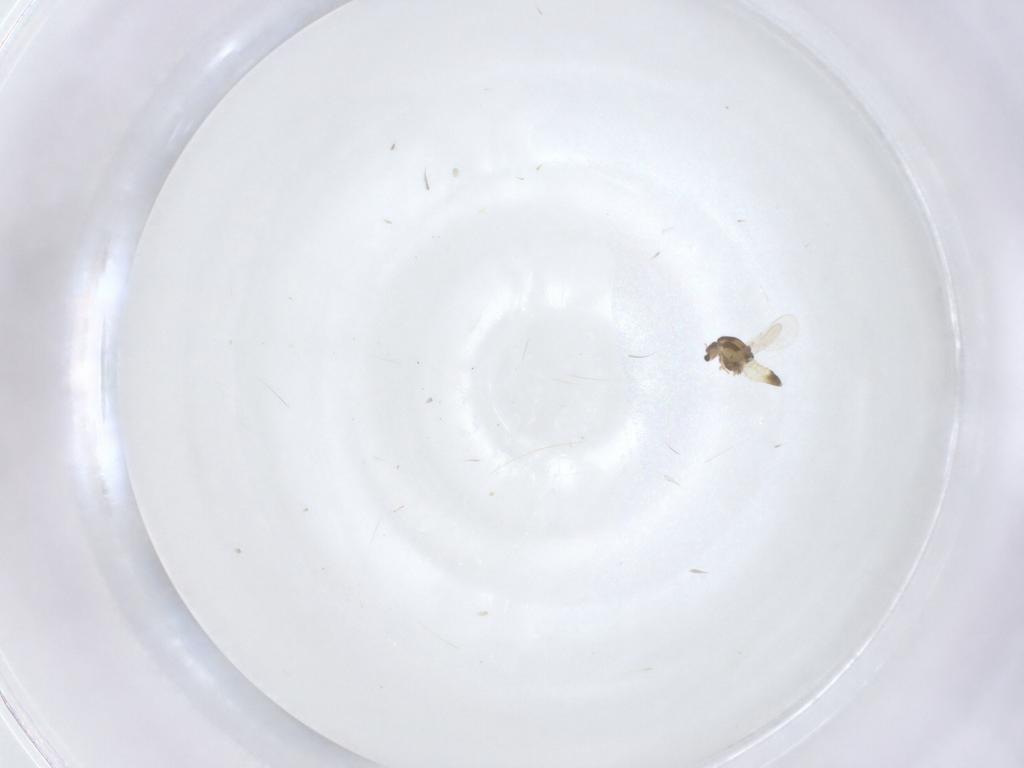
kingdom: Animalia
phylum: Arthropoda
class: Insecta
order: Diptera
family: Chironomidae
